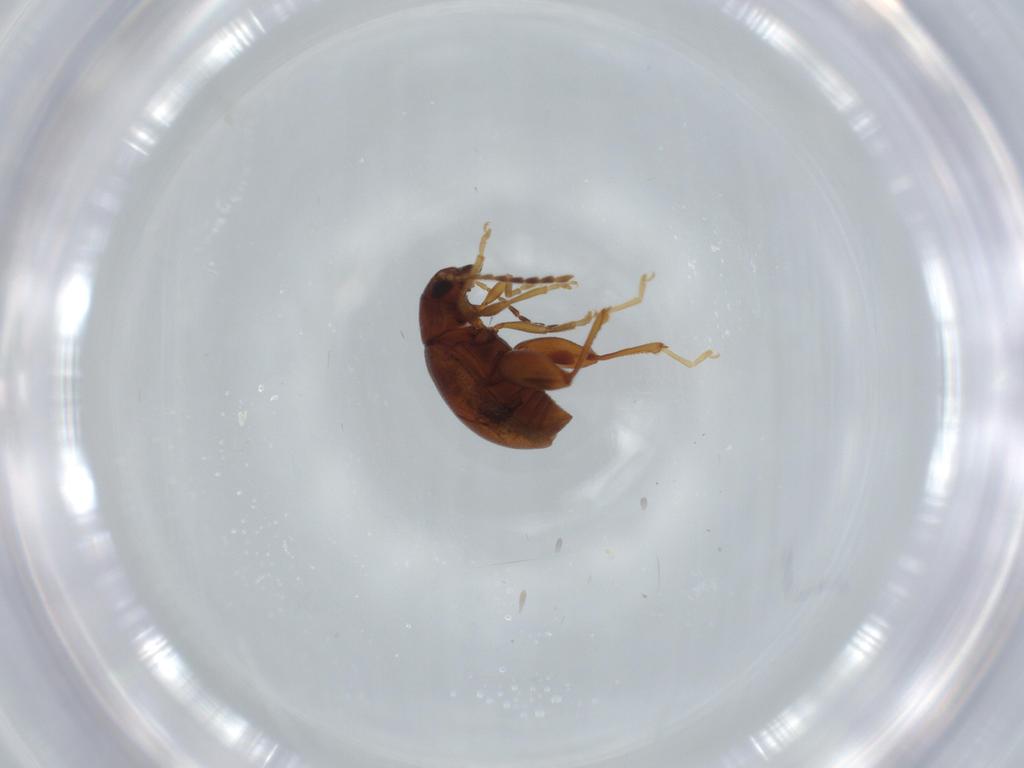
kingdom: Animalia
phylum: Arthropoda
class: Insecta
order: Coleoptera
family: Chrysomelidae
